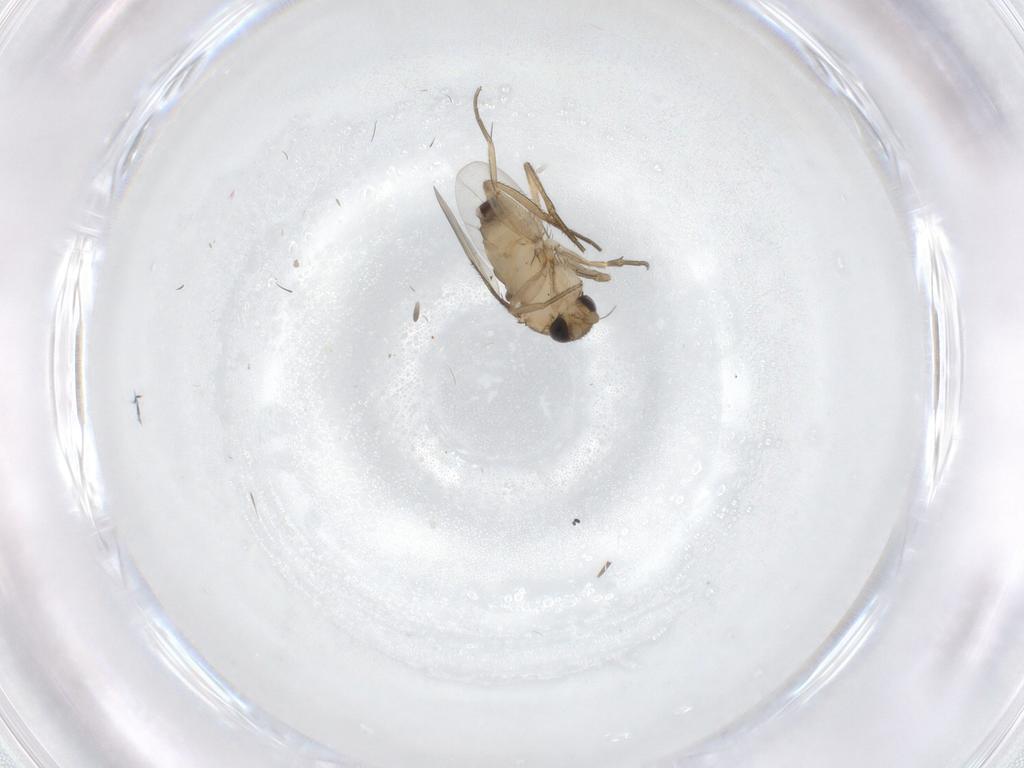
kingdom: Animalia
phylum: Arthropoda
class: Insecta
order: Diptera
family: Phoridae
